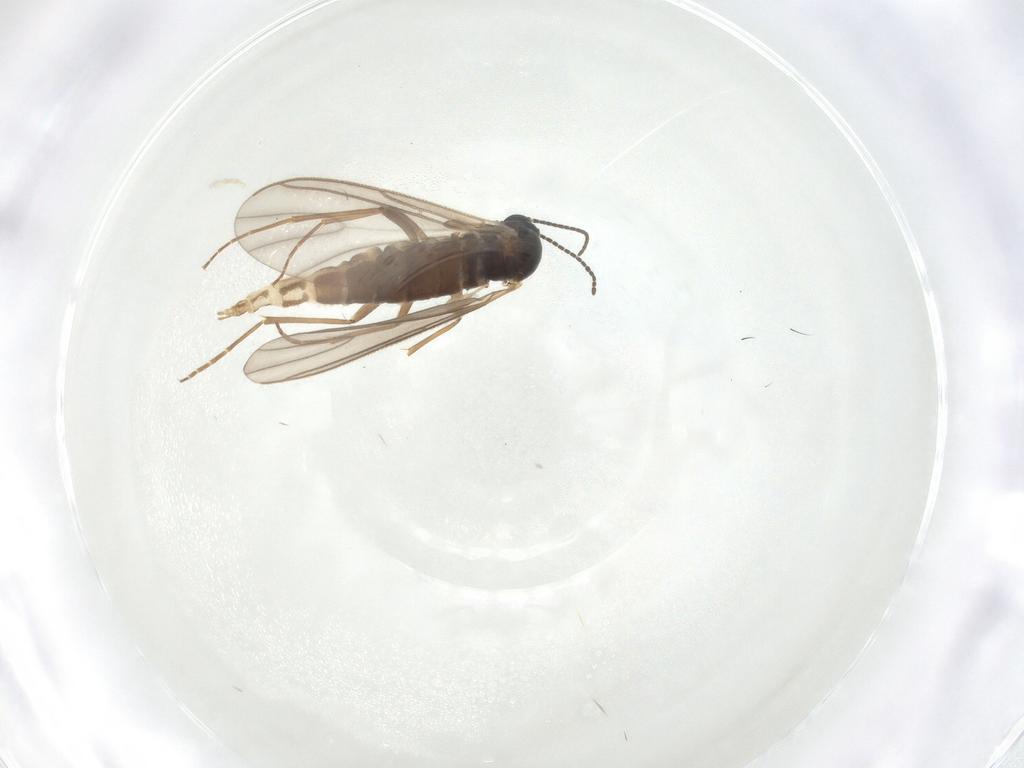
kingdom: Animalia
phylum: Arthropoda
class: Insecta
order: Diptera
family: Sciaridae
